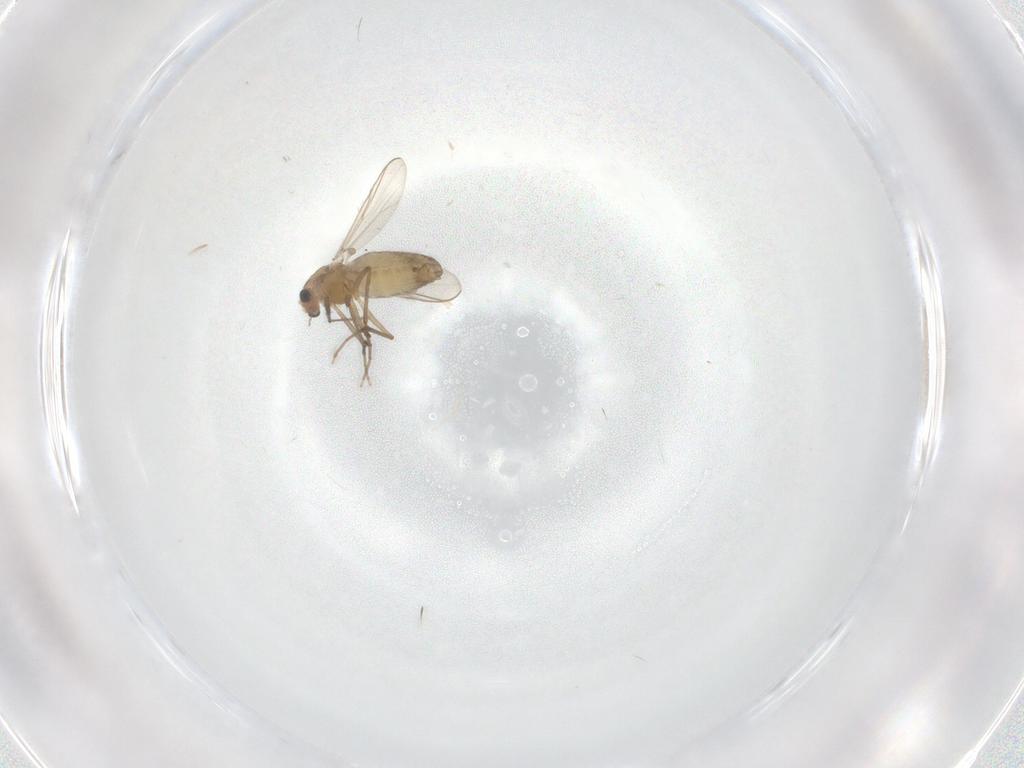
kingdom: Animalia
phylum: Arthropoda
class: Insecta
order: Diptera
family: Chironomidae
